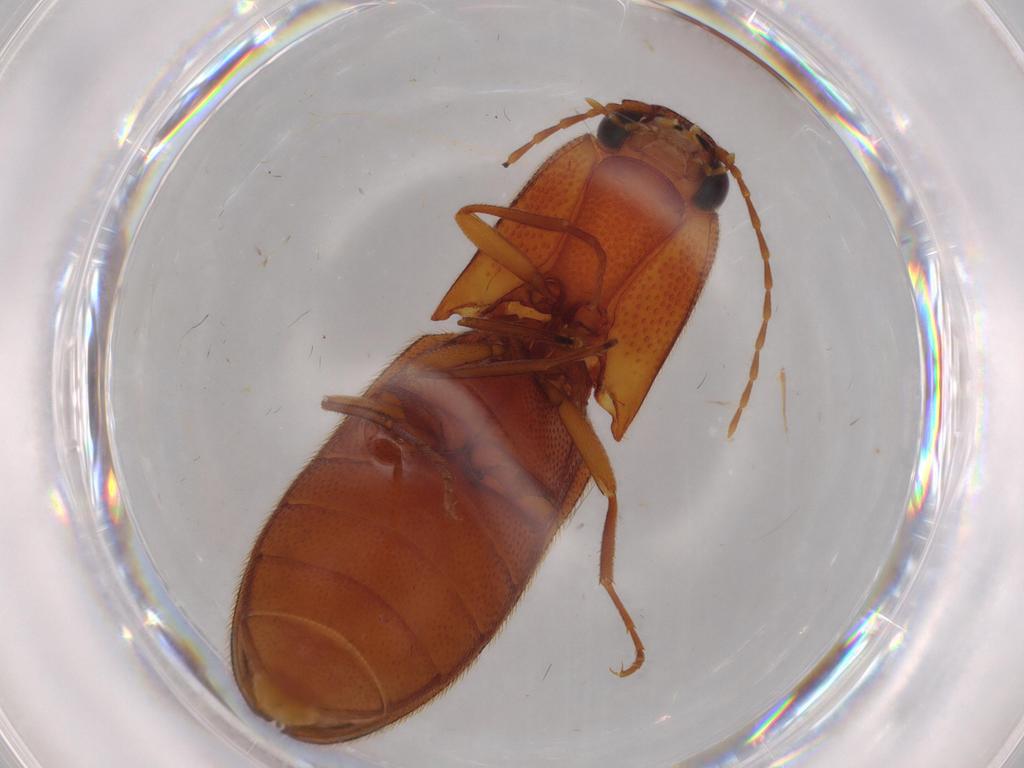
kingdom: Animalia
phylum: Arthropoda
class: Insecta
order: Coleoptera
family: Elateridae
